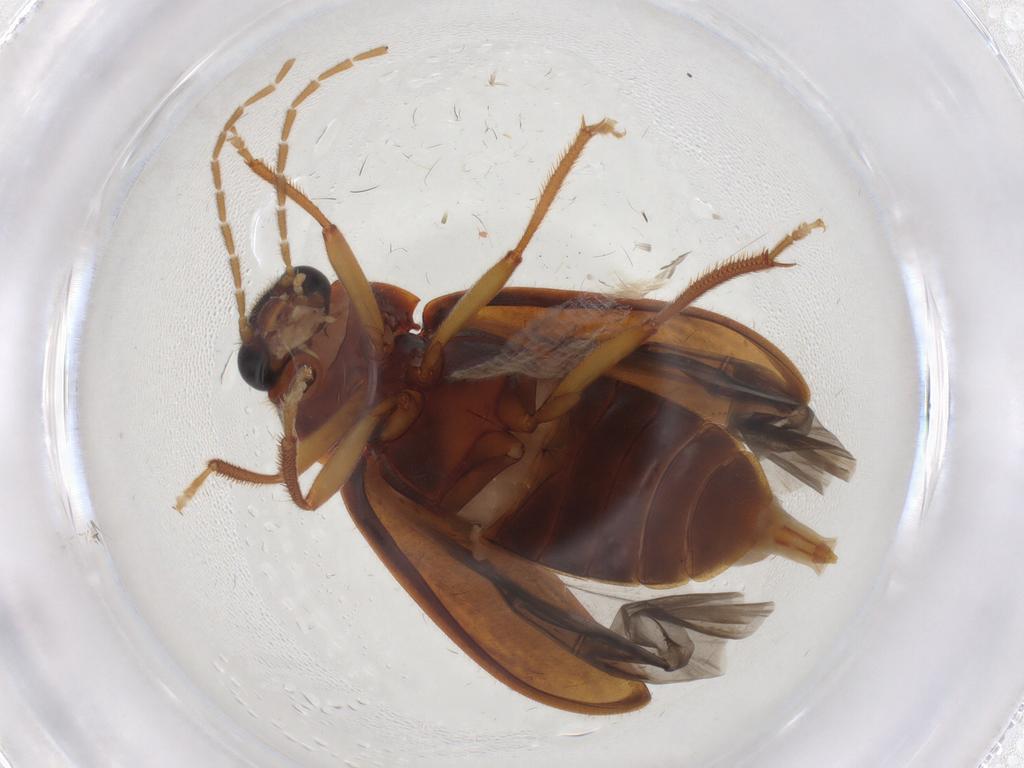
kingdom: Animalia
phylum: Arthropoda
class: Insecta
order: Coleoptera
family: Ptilodactylidae
